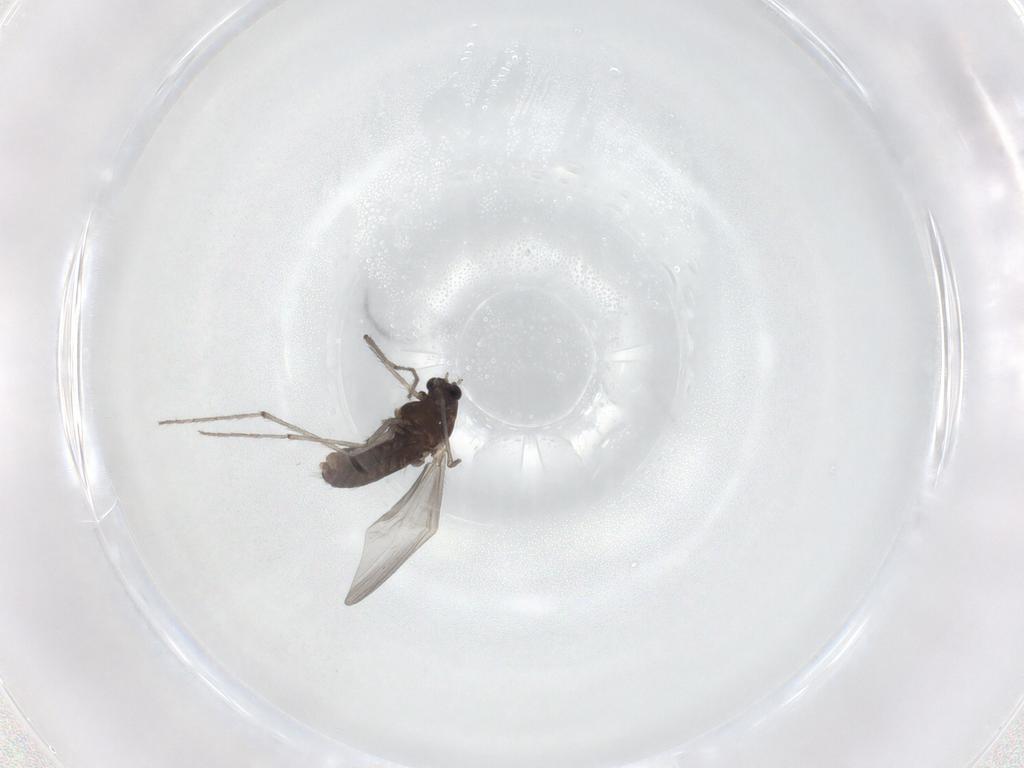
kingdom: Animalia
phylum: Arthropoda
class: Insecta
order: Diptera
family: Chironomidae
